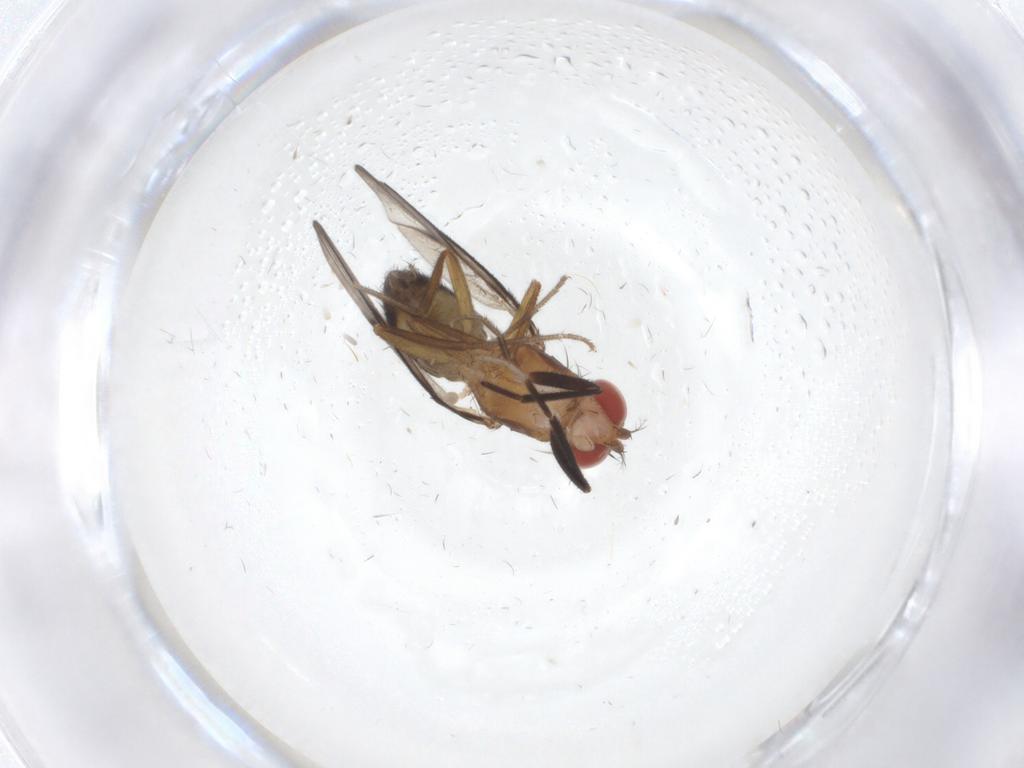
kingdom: Animalia
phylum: Arthropoda
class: Insecta
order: Diptera
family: Drosophilidae
